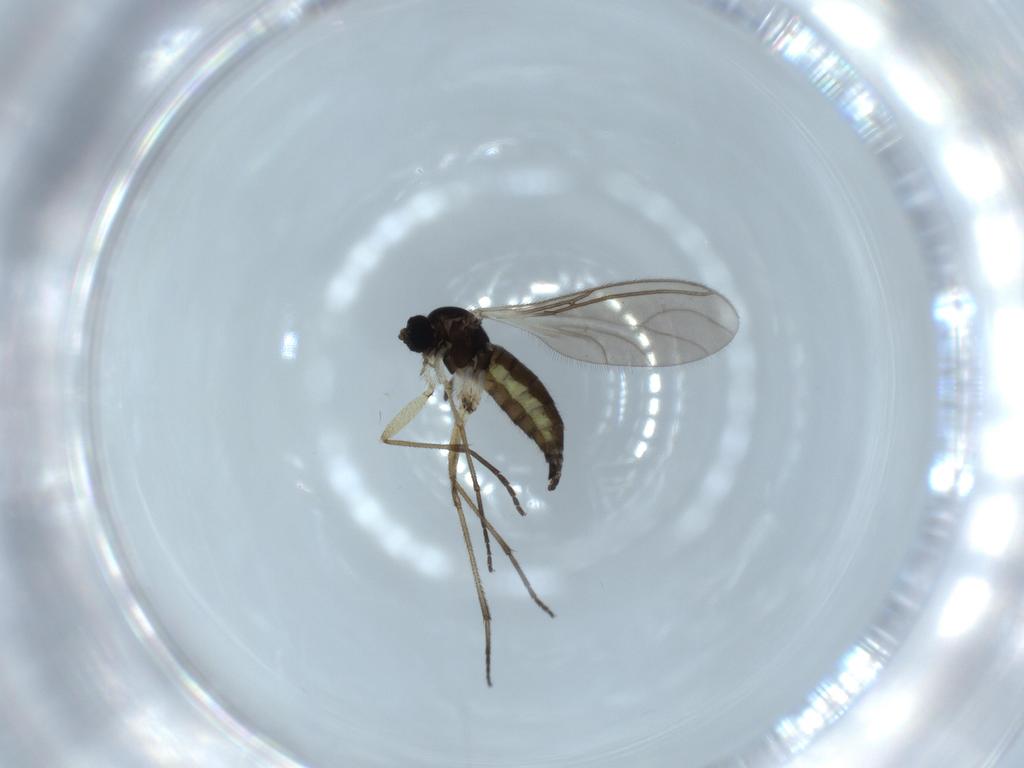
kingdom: Animalia
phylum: Arthropoda
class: Insecta
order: Diptera
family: Sciaridae
